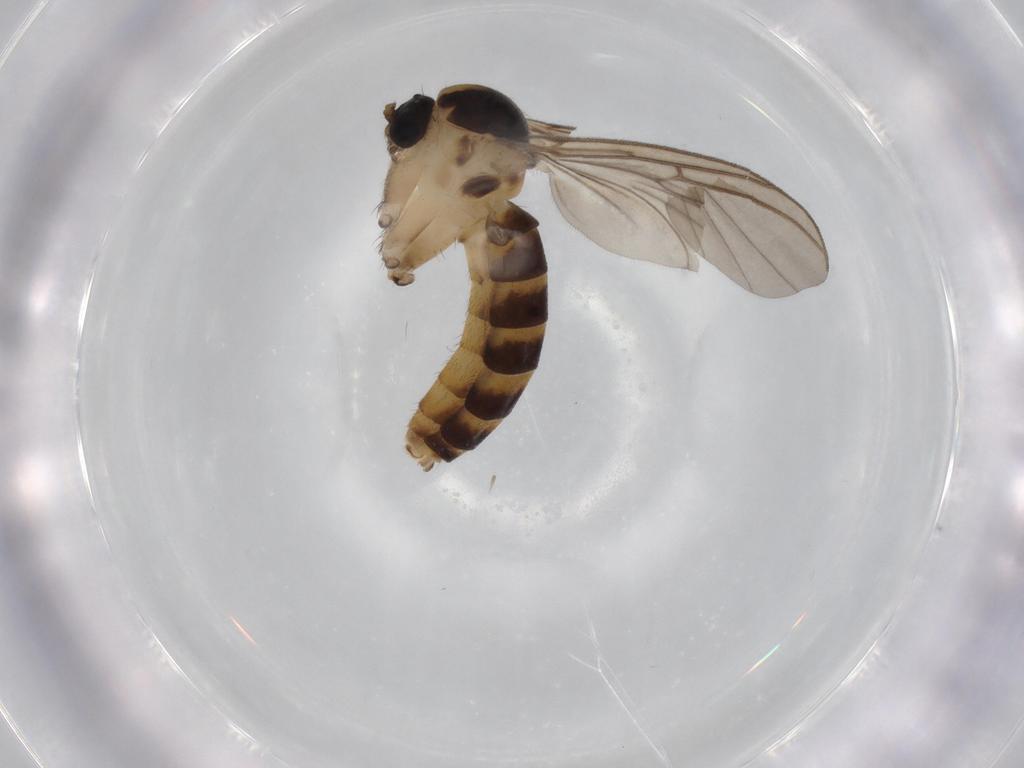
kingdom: Animalia
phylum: Arthropoda
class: Insecta
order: Diptera
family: Mycetophilidae
